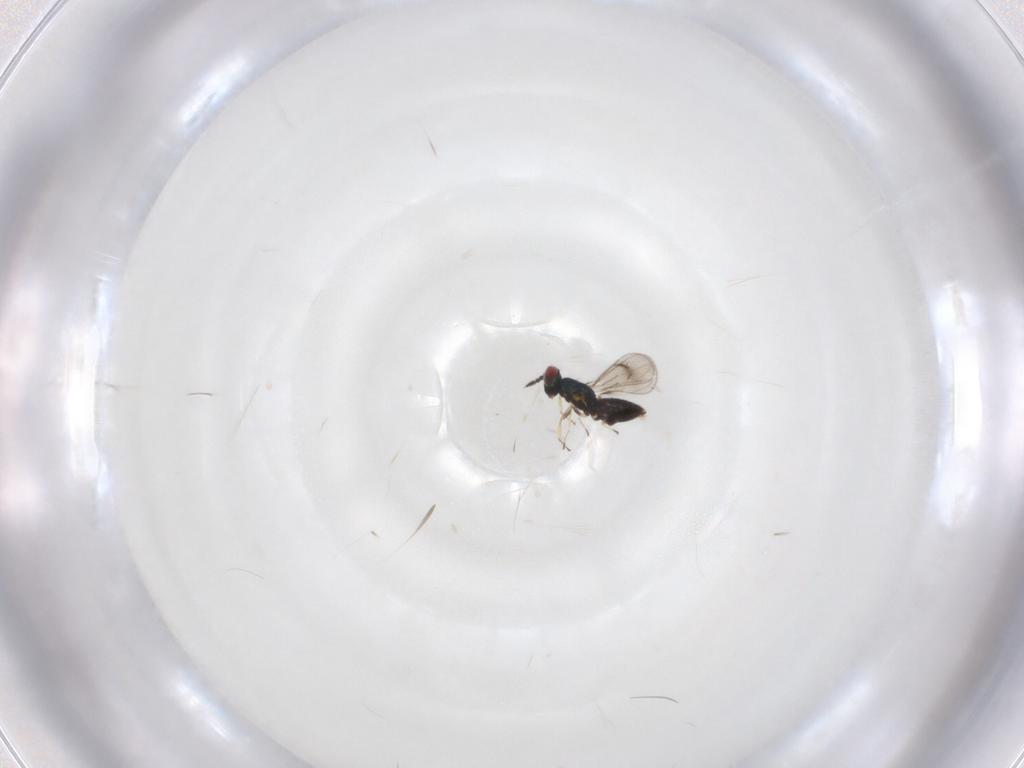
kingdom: Animalia
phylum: Arthropoda
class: Insecta
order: Hymenoptera
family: Eulophidae
